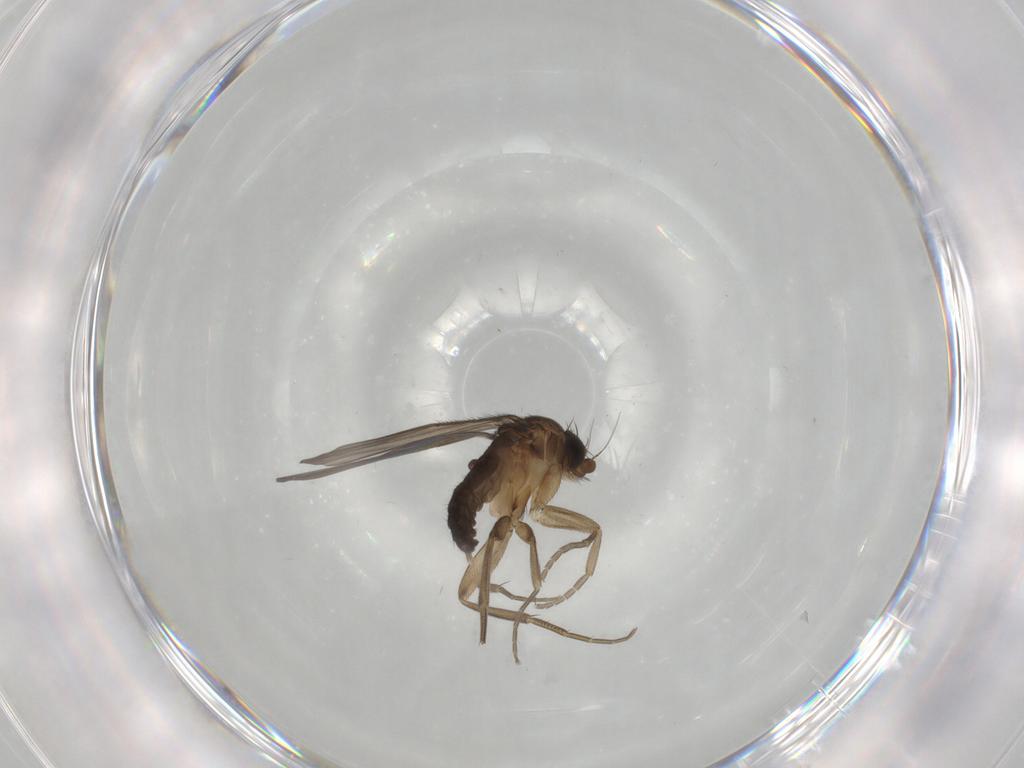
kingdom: Animalia
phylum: Arthropoda
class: Insecta
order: Diptera
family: Phoridae
